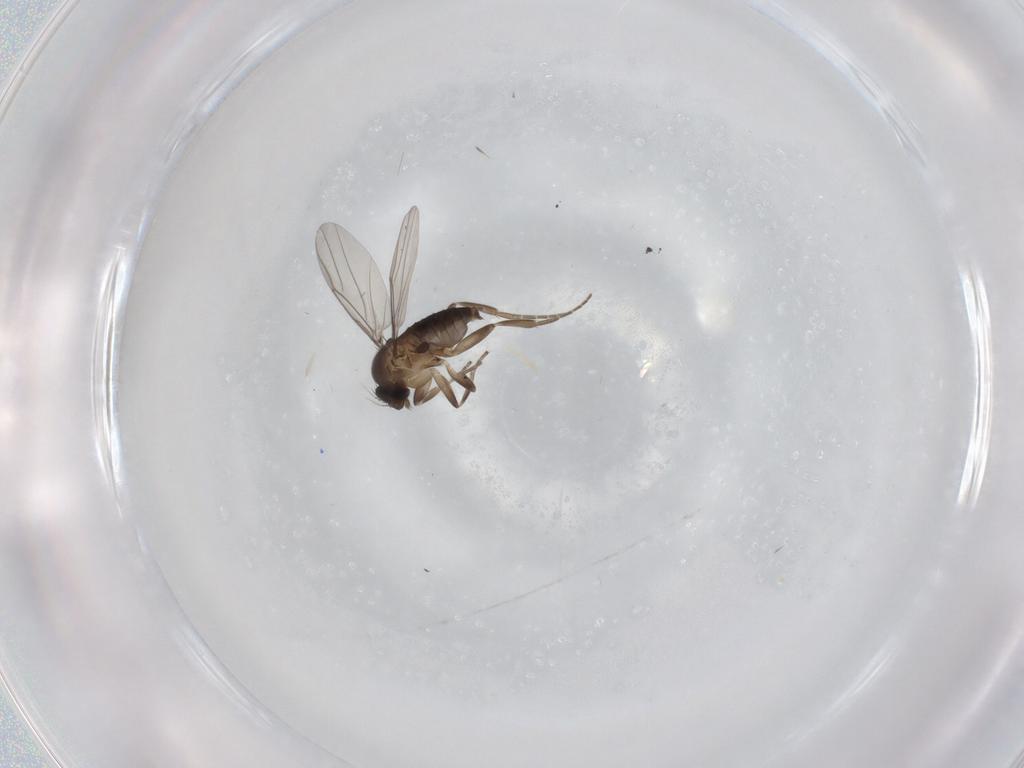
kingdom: Animalia
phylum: Arthropoda
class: Insecta
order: Diptera
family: Phoridae
